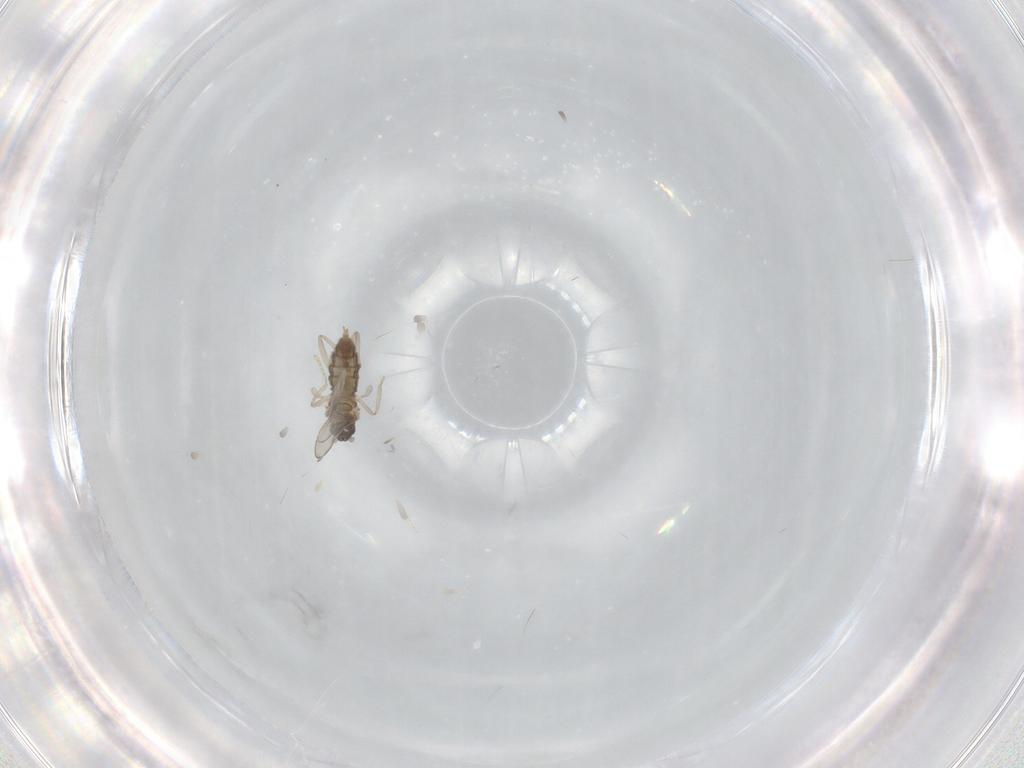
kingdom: Animalia
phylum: Arthropoda
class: Insecta
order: Diptera
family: Cecidomyiidae
